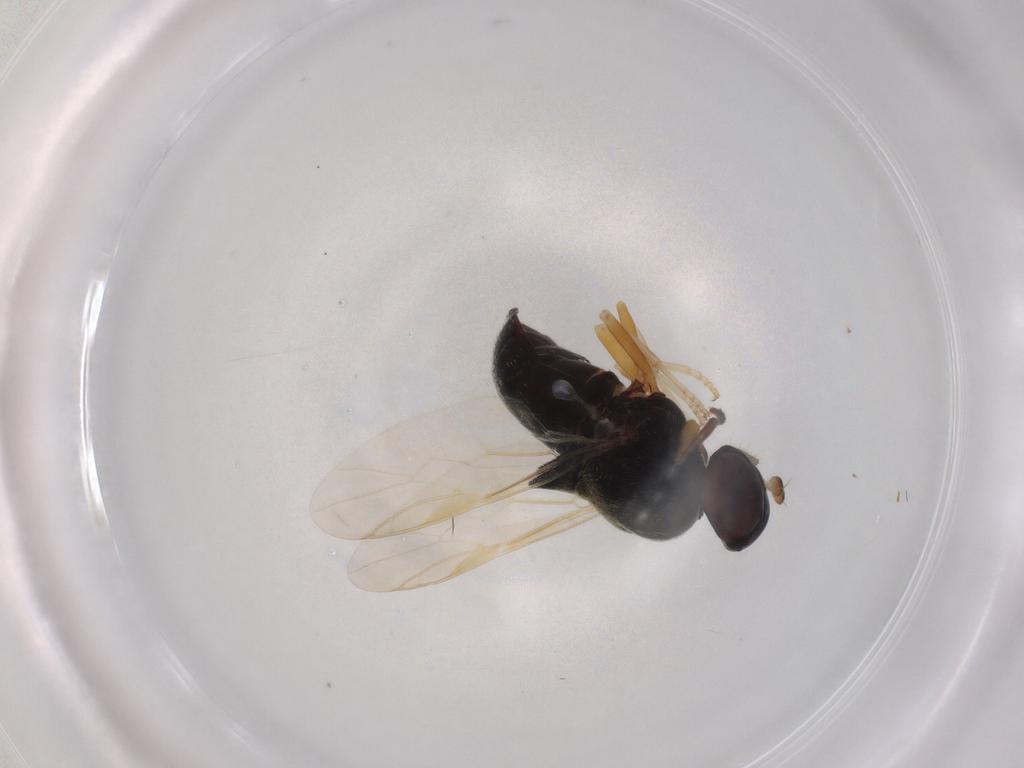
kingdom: Animalia
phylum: Arthropoda
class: Insecta
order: Diptera
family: Stratiomyidae
